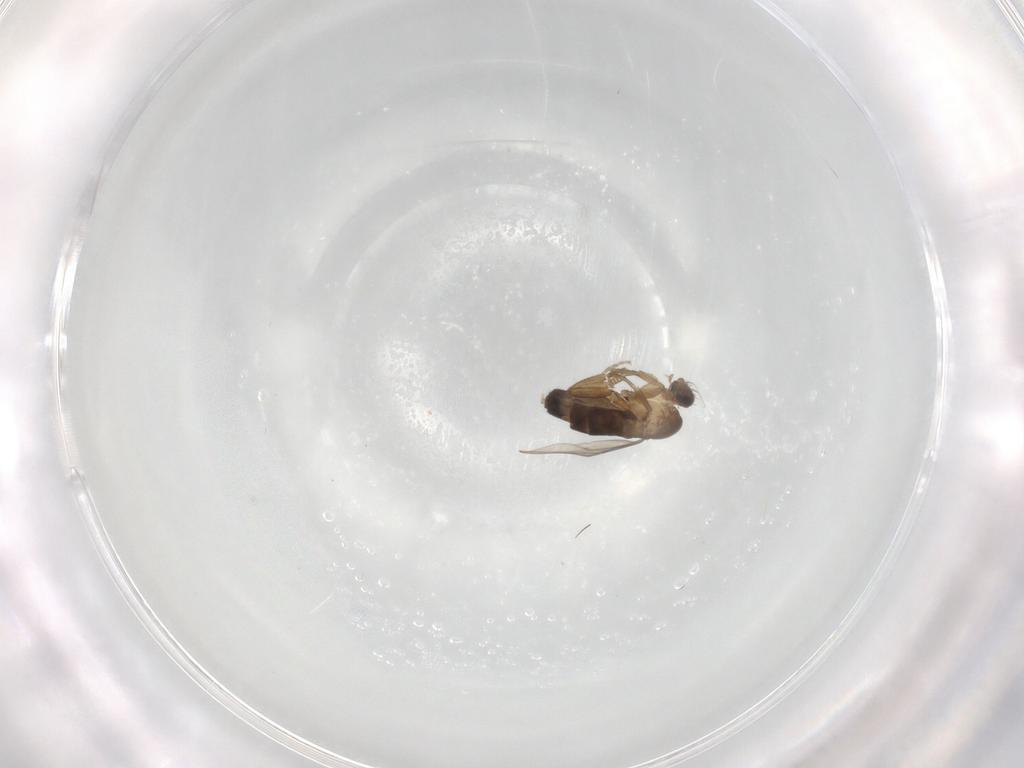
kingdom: Animalia
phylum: Arthropoda
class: Insecta
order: Diptera
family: Phoridae
